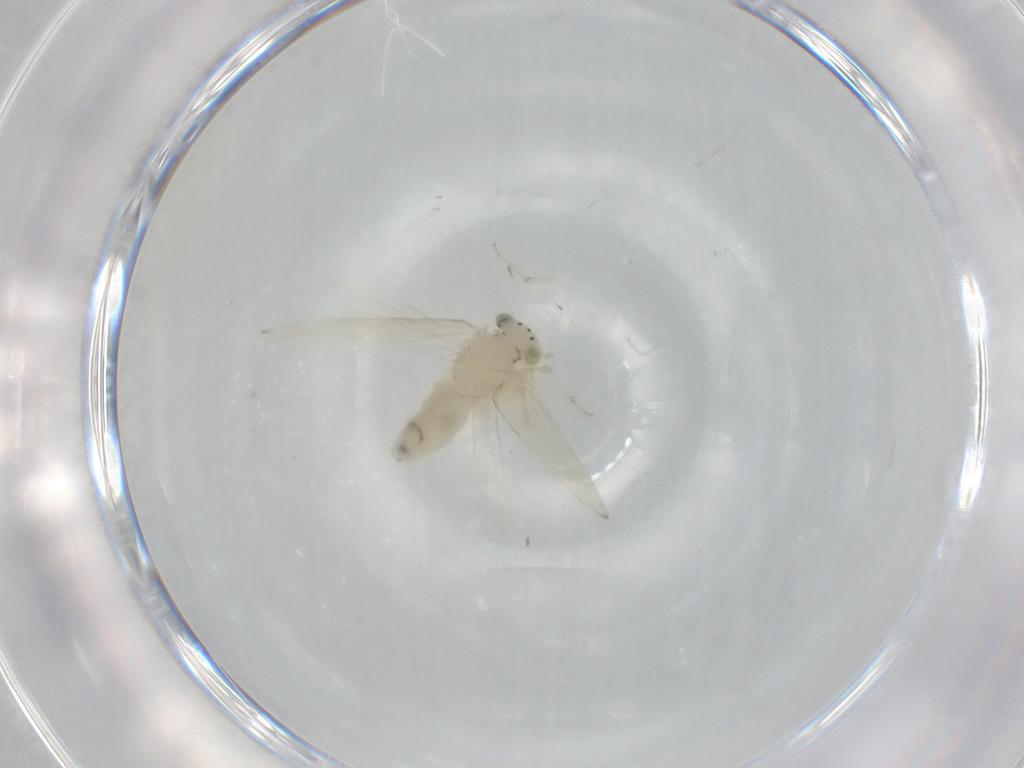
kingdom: Animalia
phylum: Arthropoda
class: Insecta
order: Psocodea
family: Lepidopsocidae
